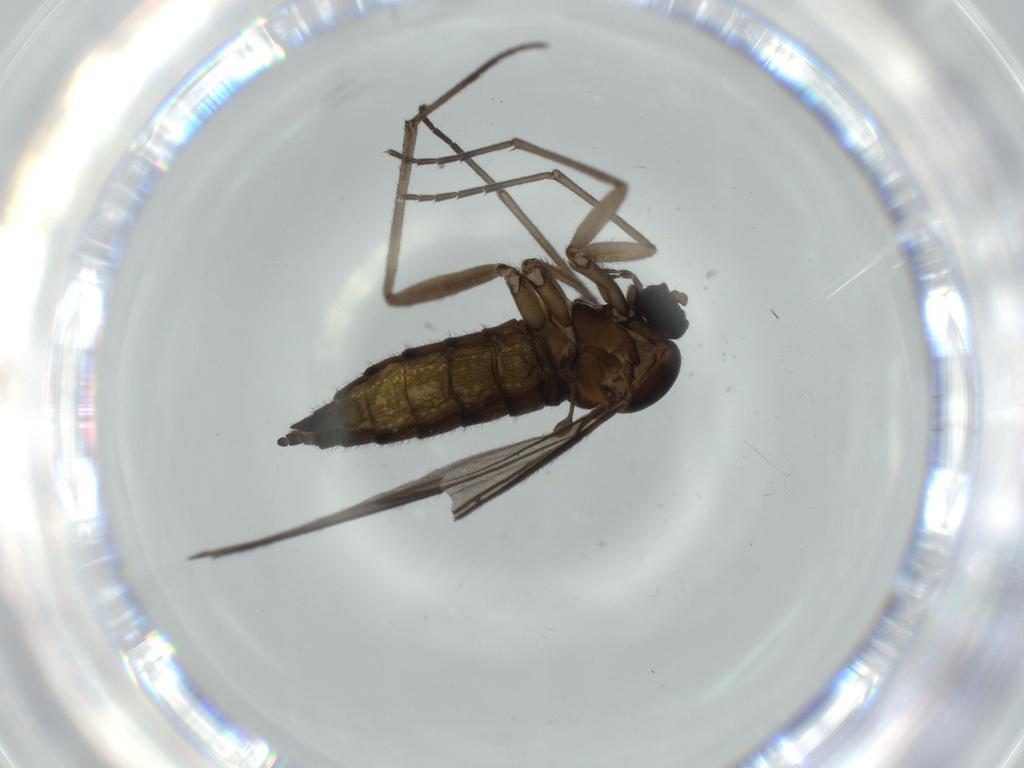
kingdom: Animalia
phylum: Arthropoda
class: Insecta
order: Diptera
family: Sciaridae
